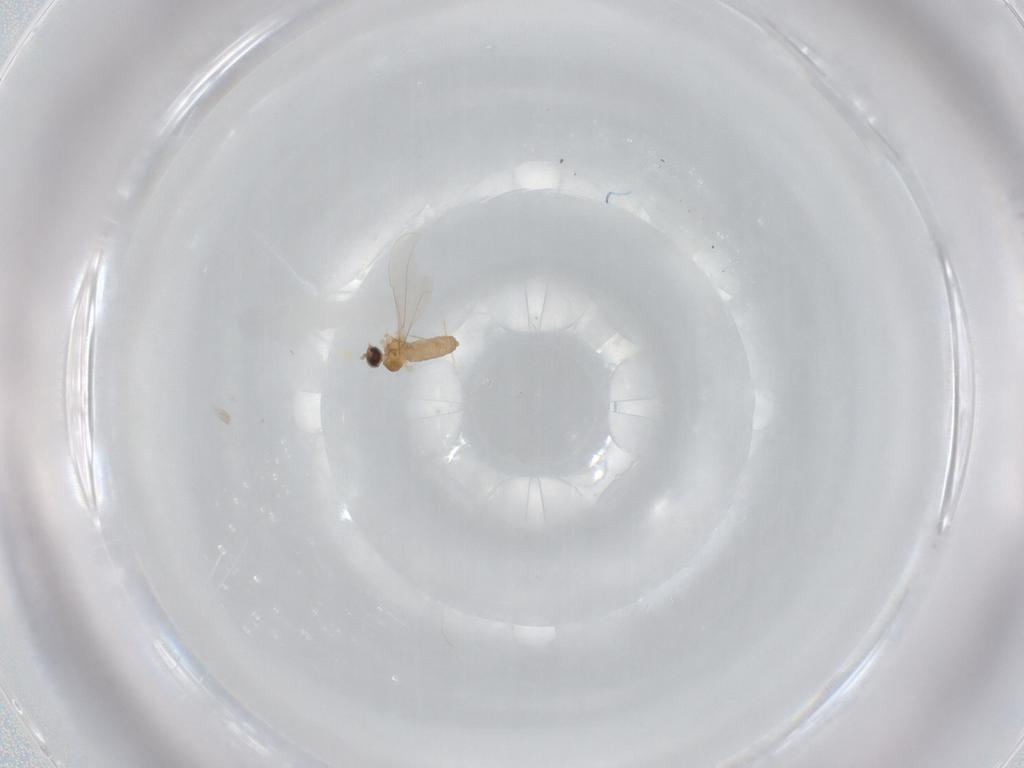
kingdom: Animalia
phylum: Arthropoda
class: Insecta
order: Diptera
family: Cecidomyiidae
